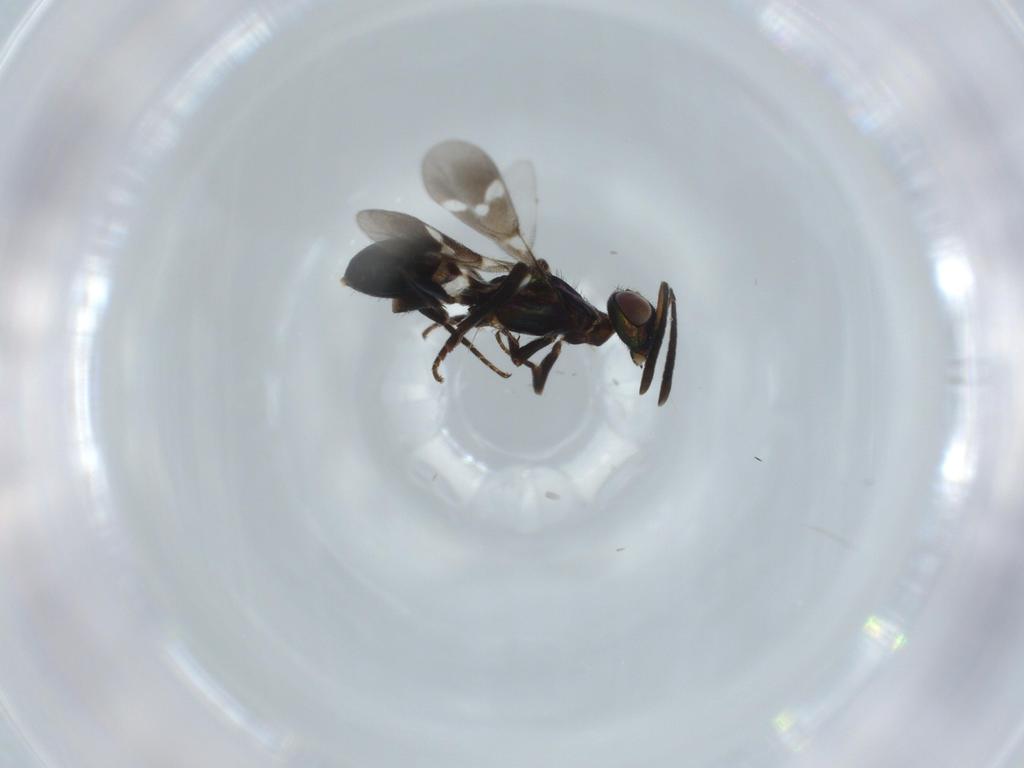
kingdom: Animalia
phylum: Arthropoda
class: Insecta
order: Hymenoptera
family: Eupelmidae
